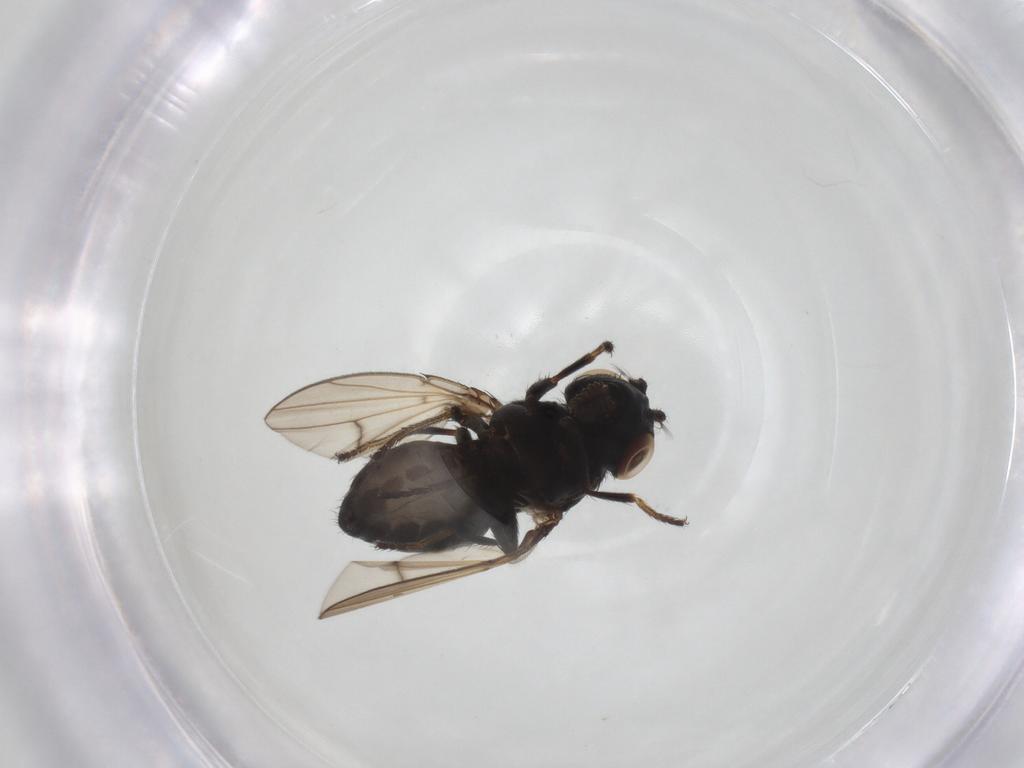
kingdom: Animalia
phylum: Arthropoda
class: Insecta
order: Diptera
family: Ephydridae
